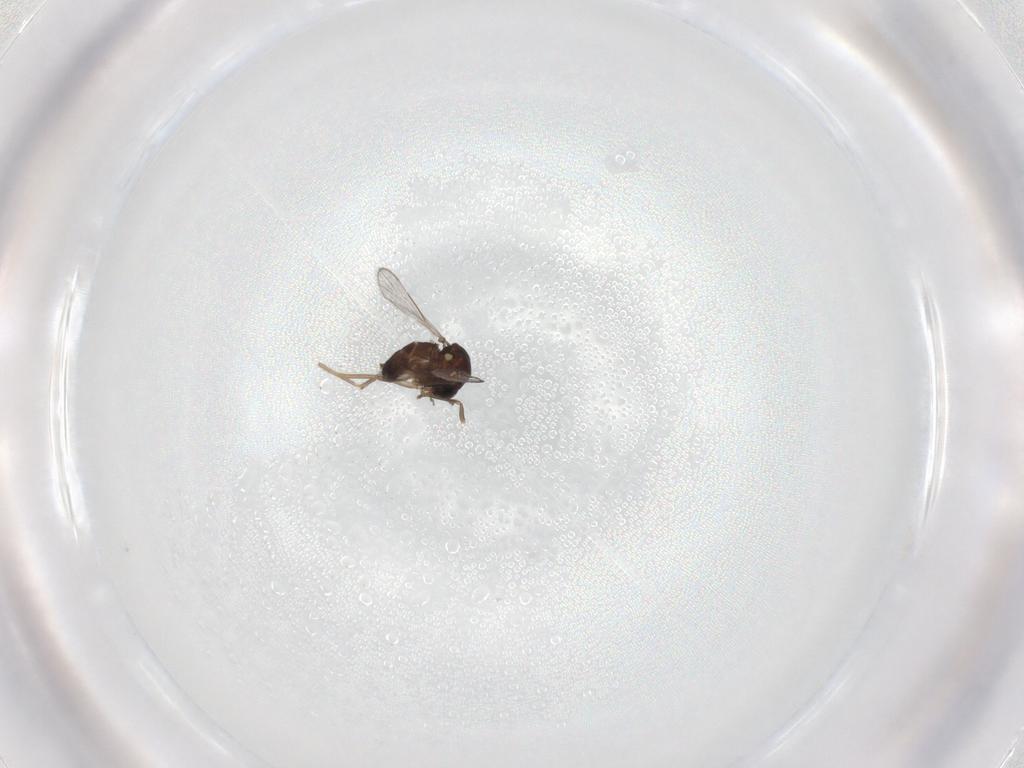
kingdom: Animalia
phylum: Arthropoda
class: Insecta
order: Diptera
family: Ceratopogonidae
